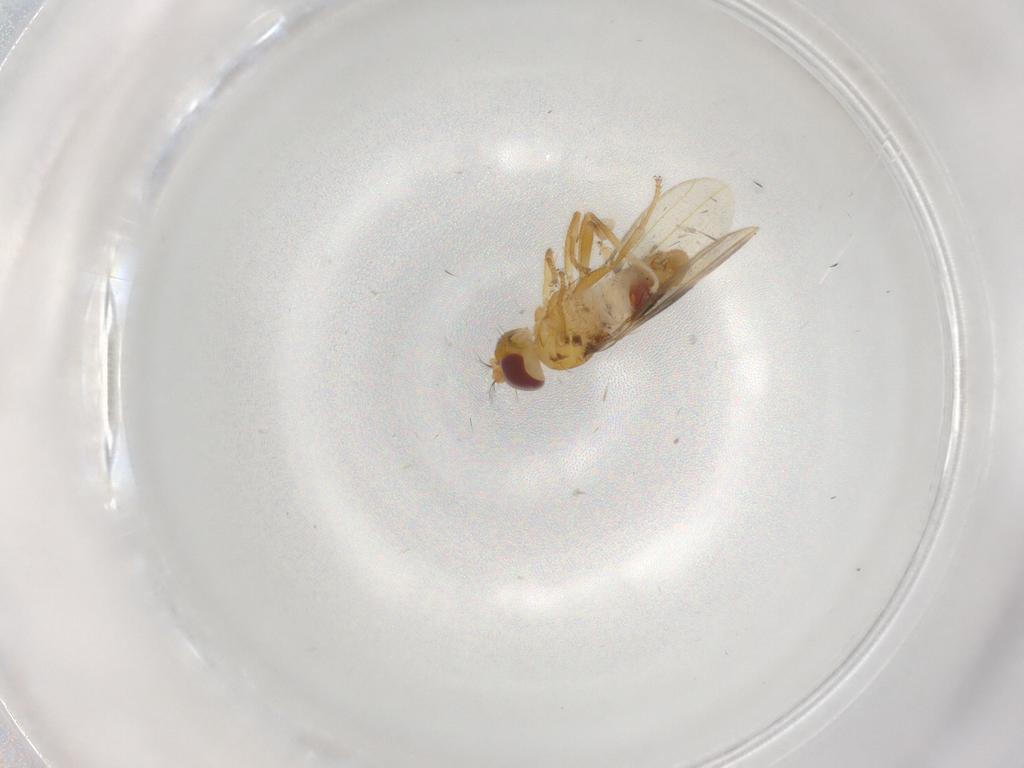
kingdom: Animalia
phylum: Arthropoda
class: Insecta
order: Diptera
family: Periscelididae
